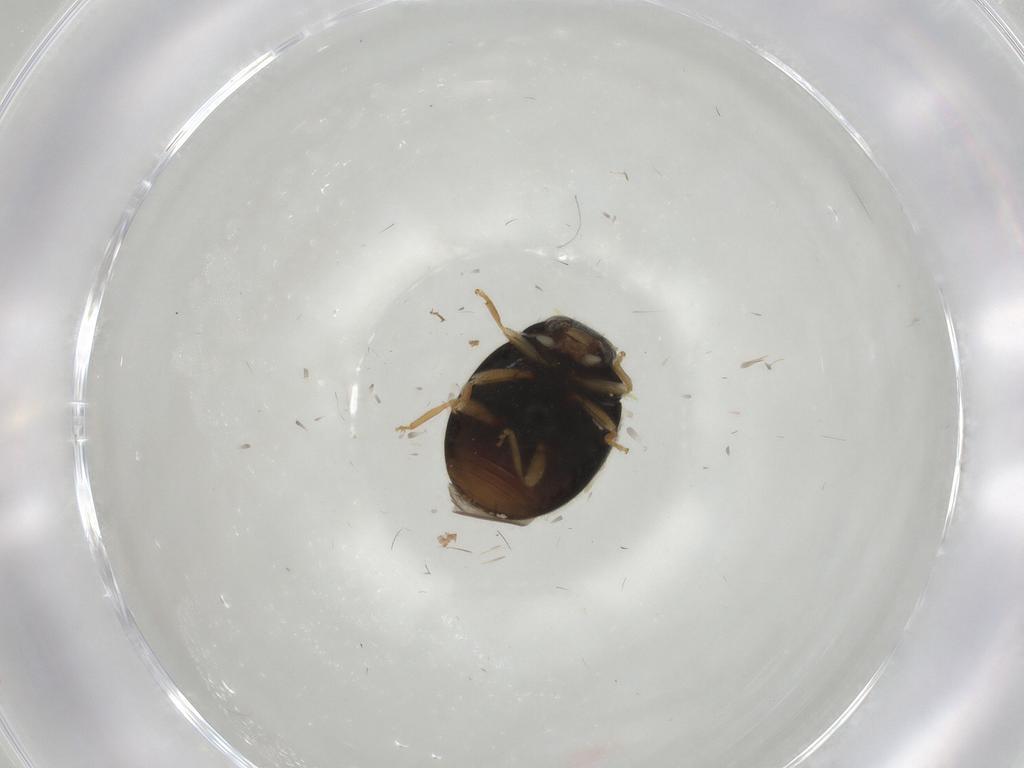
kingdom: Animalia
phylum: Arthropoda
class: Insecta
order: Coleoptera
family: Coccinellidae
